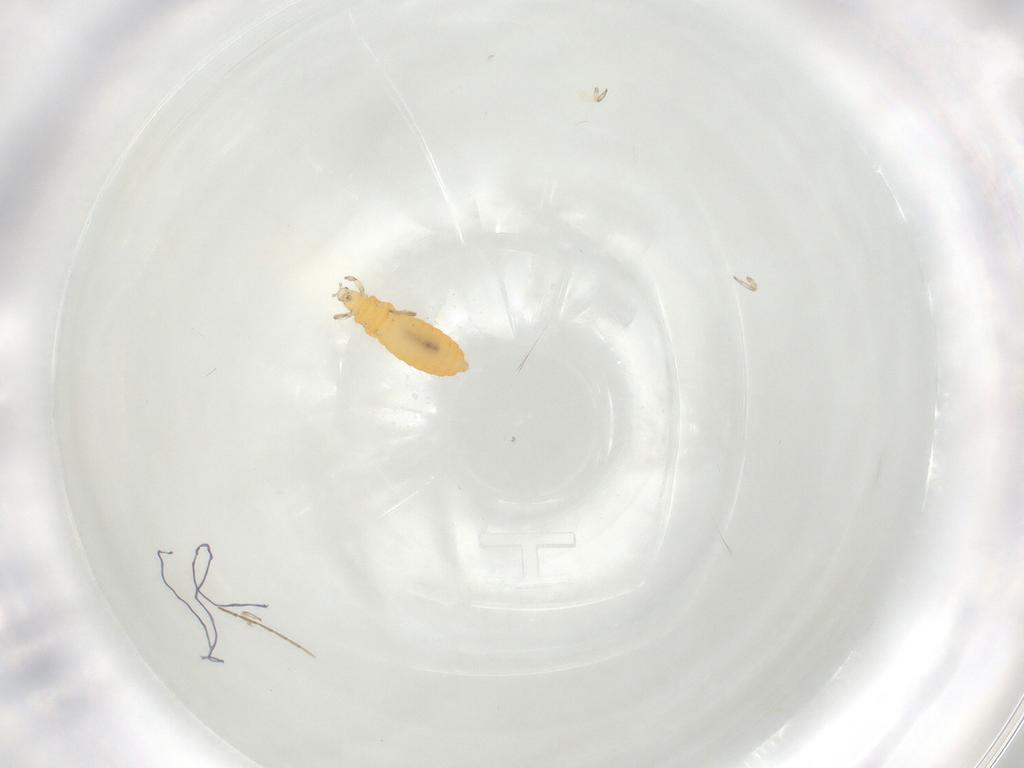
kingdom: Animalia
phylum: Arthropoda
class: Insecta
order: Thysanoptera
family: Aeolothripidae
